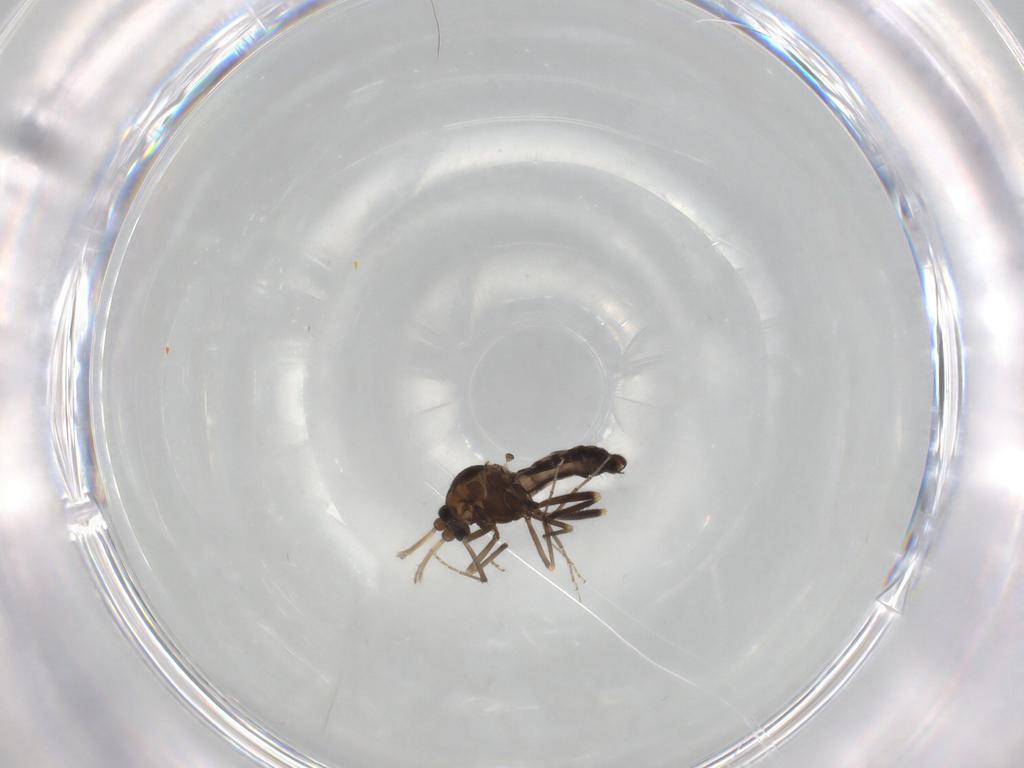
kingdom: Animalia
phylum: Arthropoda
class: Insecta
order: Diptera
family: Ceratopogonidae
